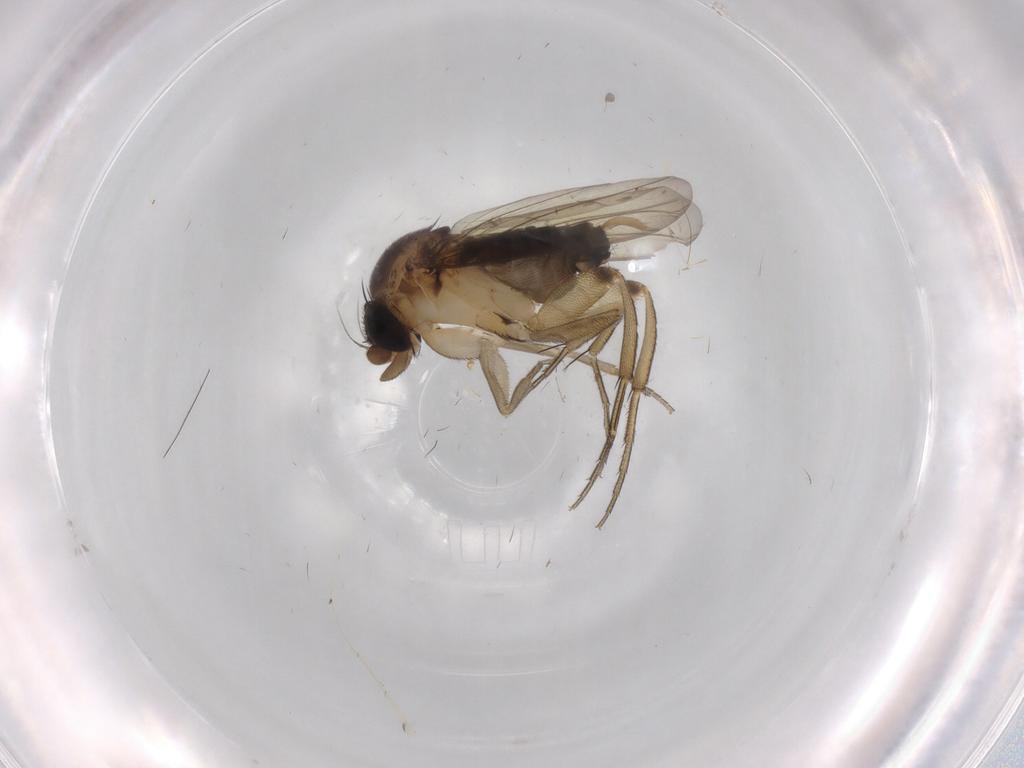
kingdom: Animalia
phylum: Arthropoda
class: Insecta
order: Diptera
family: Phoridae
